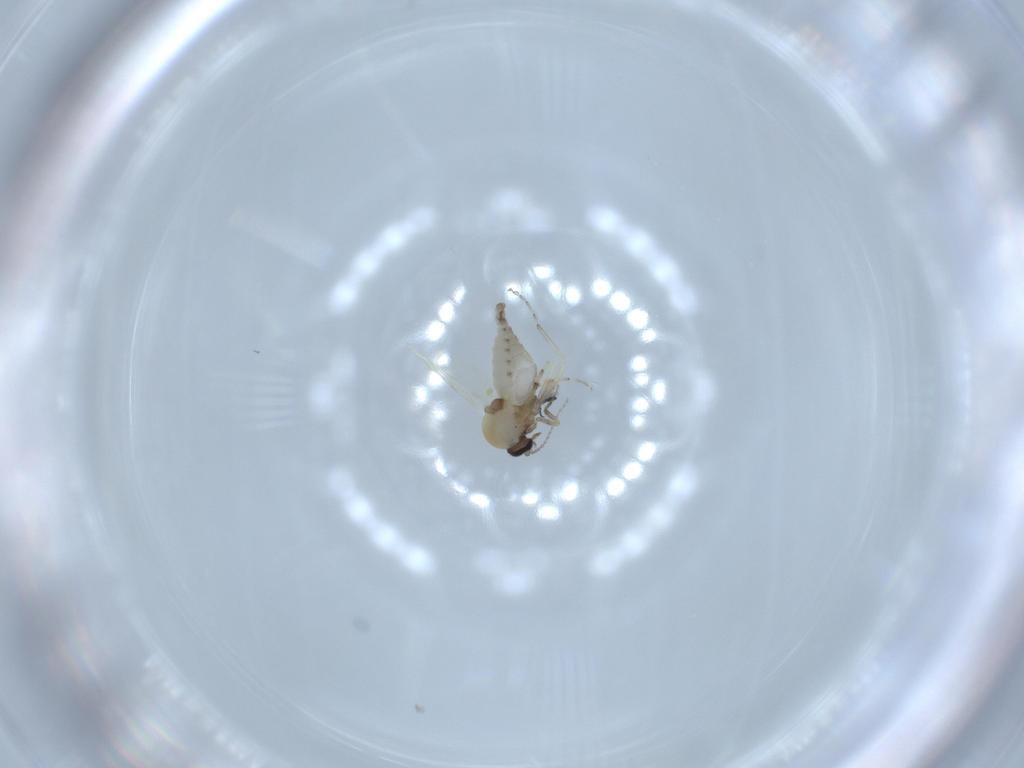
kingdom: Animalia
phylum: Arthropoda
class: Insecta
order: Diptera
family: Ceratopogonidae
